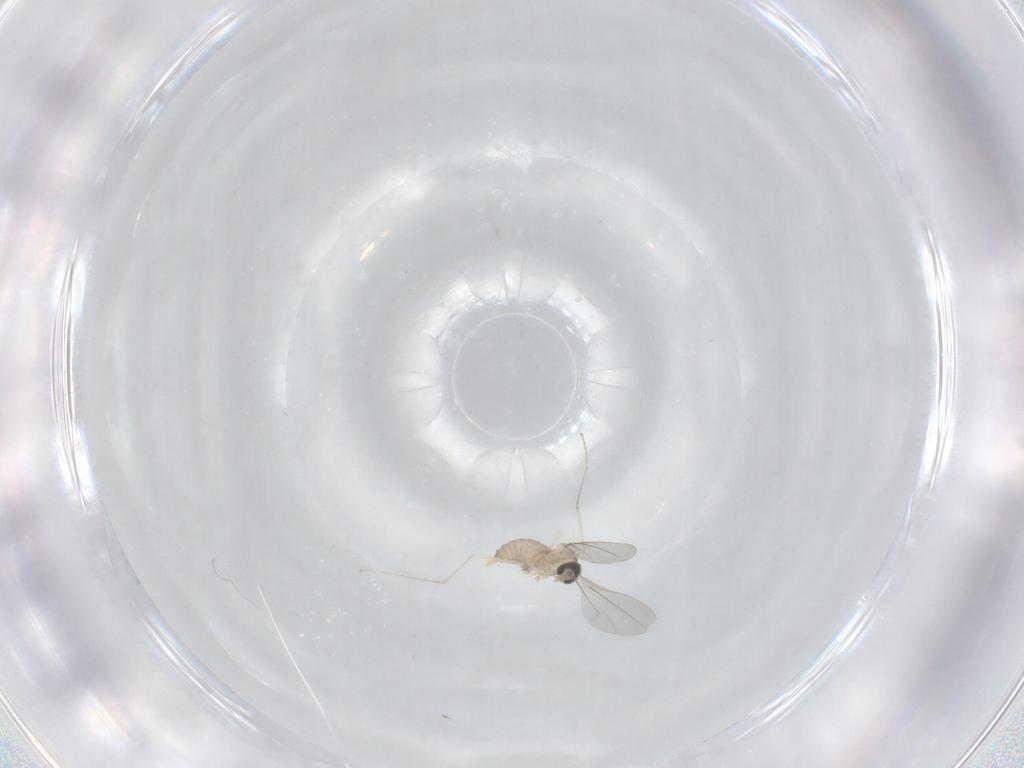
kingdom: Animalia
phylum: Arthropoda
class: Insecta
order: Diptera
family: Cecidomyiidae
